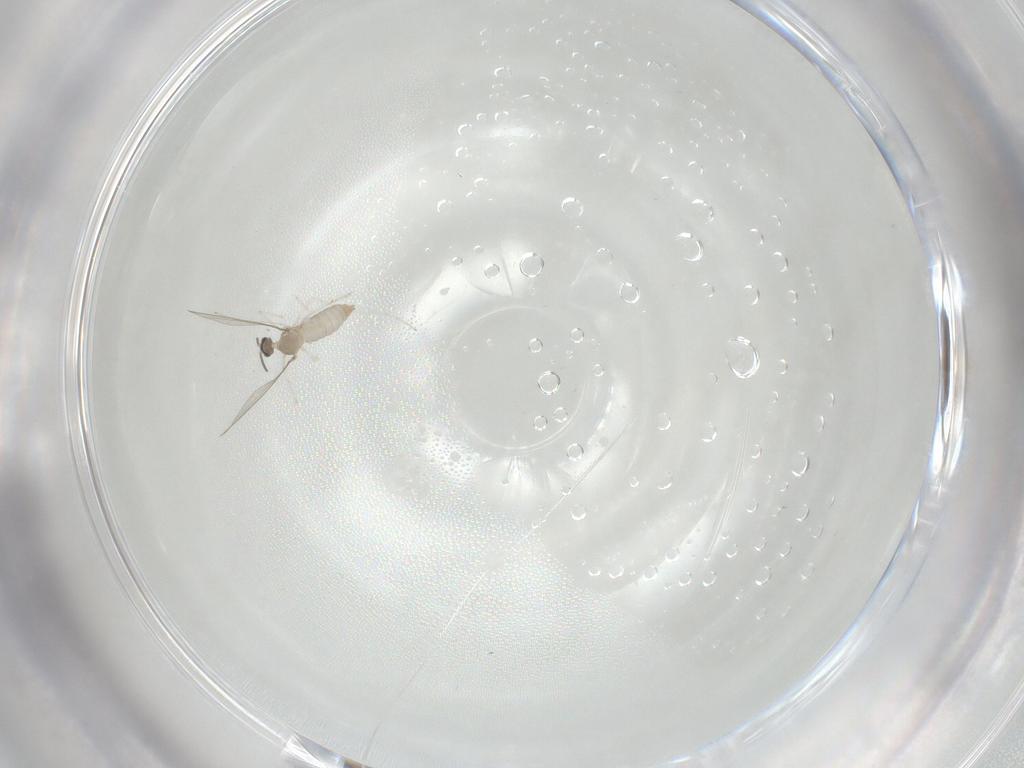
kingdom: Animalia
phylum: Arthropoda
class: Insecta
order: Diptera
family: Cecidomyiidae
